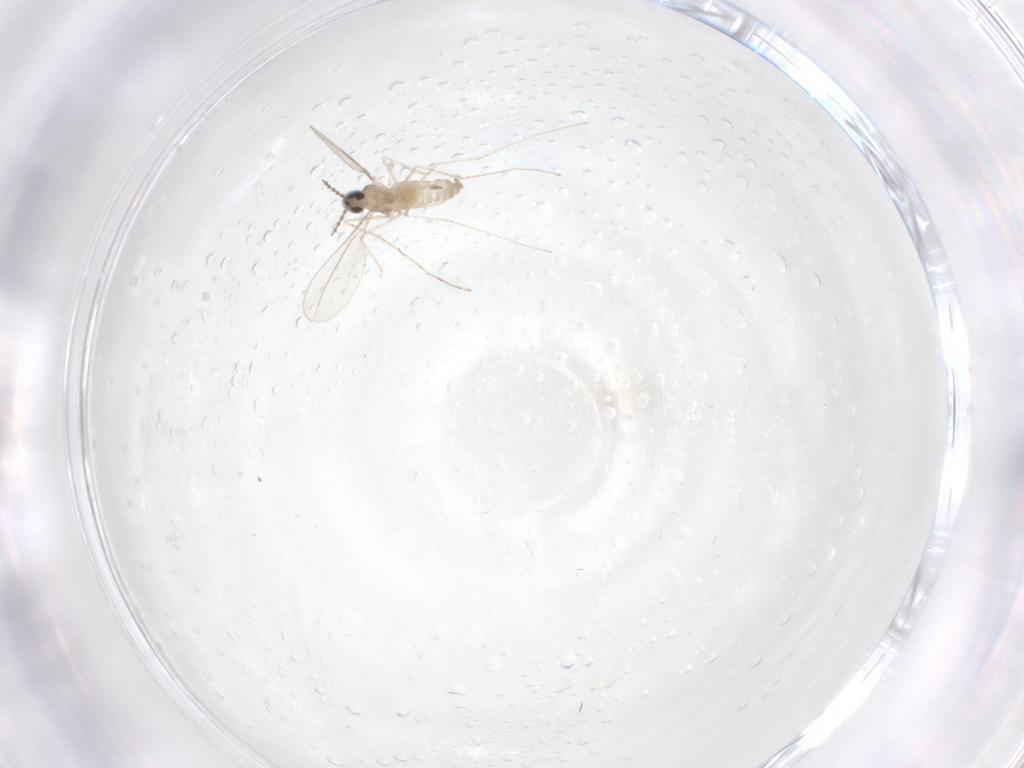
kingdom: Animalia
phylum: Arthropoda
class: Insecta
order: Diptera
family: Cecidomyiidae
